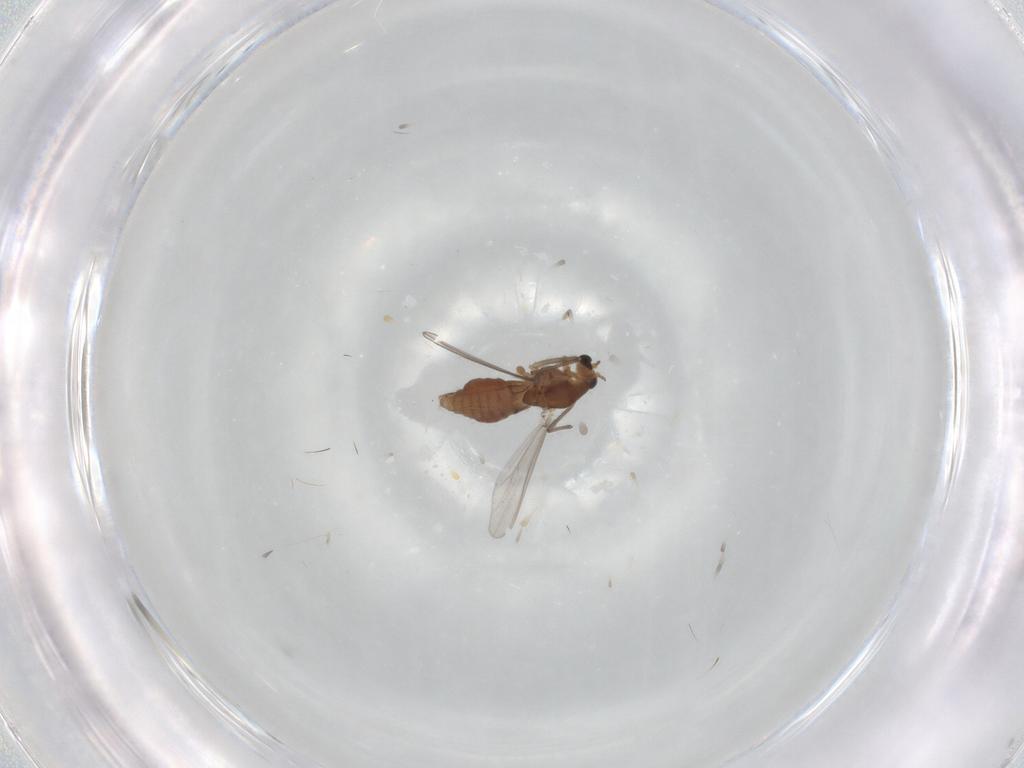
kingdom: Animalia
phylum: Arthropoda
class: Insecta
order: Diptera
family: Chironomidae
